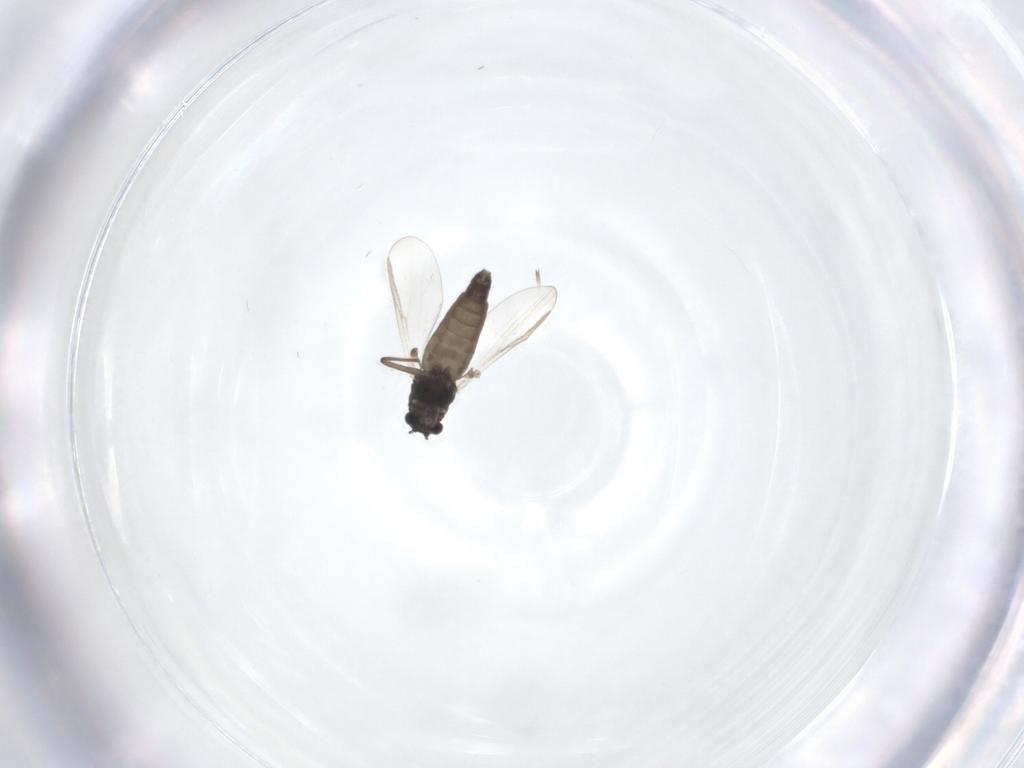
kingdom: Animalia
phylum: Arthropoda
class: Insecta
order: Diptera
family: Chironomidae
